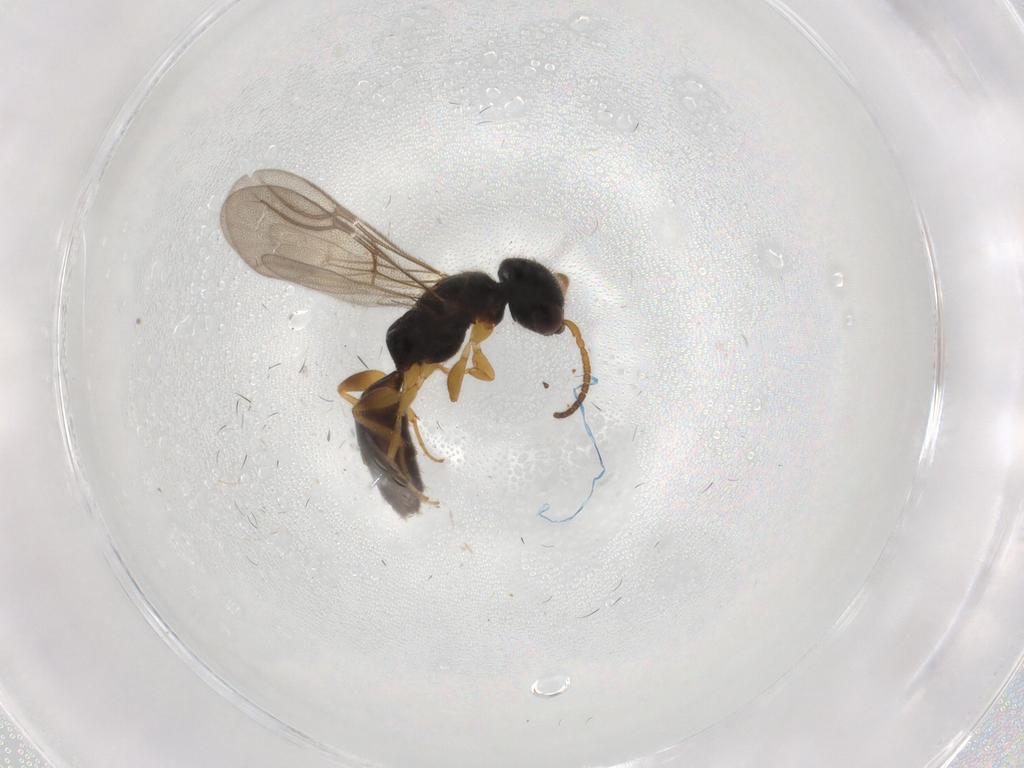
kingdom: Animalia
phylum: Arthropoda
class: Insecta
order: Hymenoptera
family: Bethylidae
